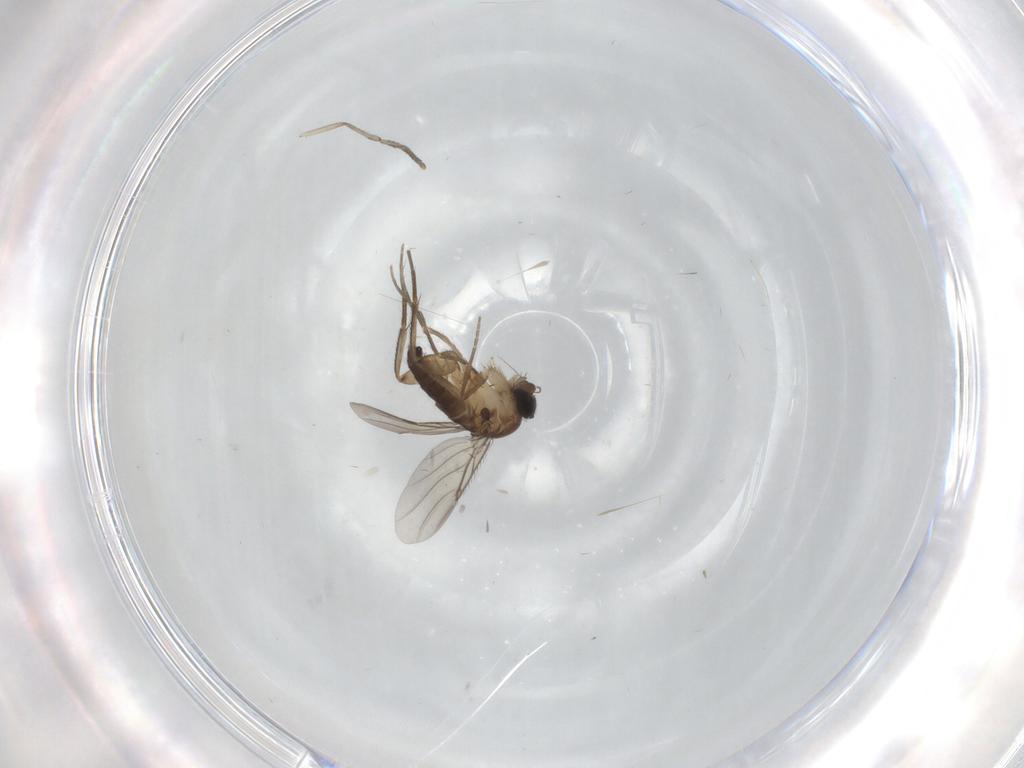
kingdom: Animalia
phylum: Arthropoda
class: Insecta
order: Diptera
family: Phoridae
